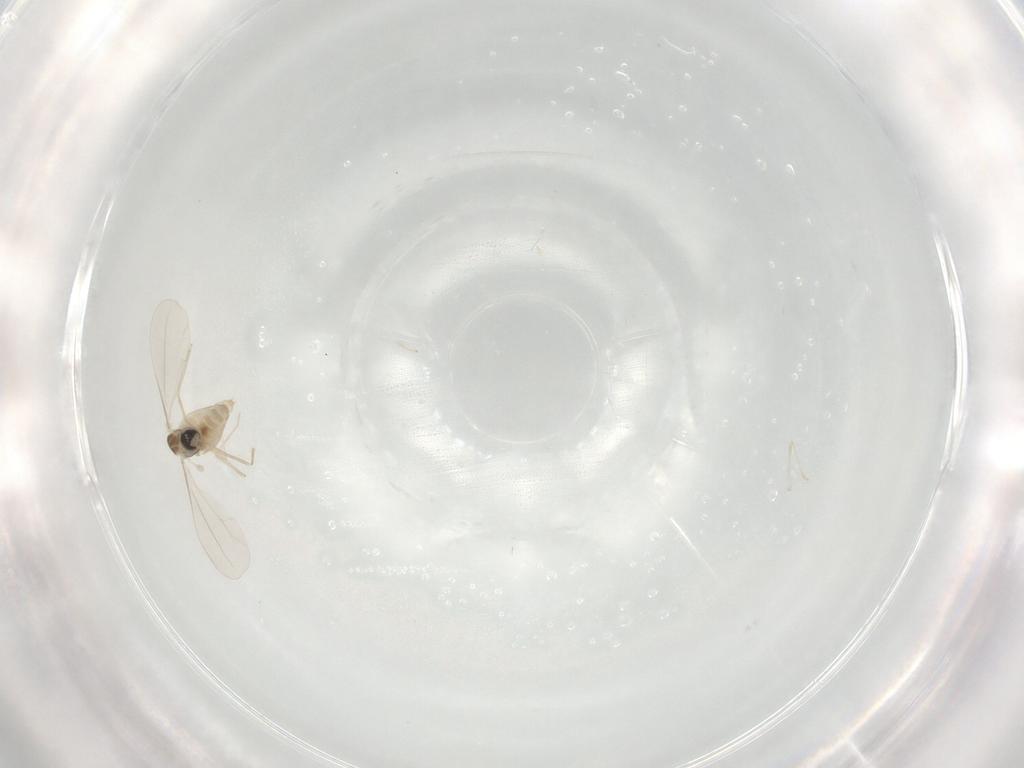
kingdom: Animalia
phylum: Arthropoda
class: Insecta
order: Diptera
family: Cecidomyiidae
